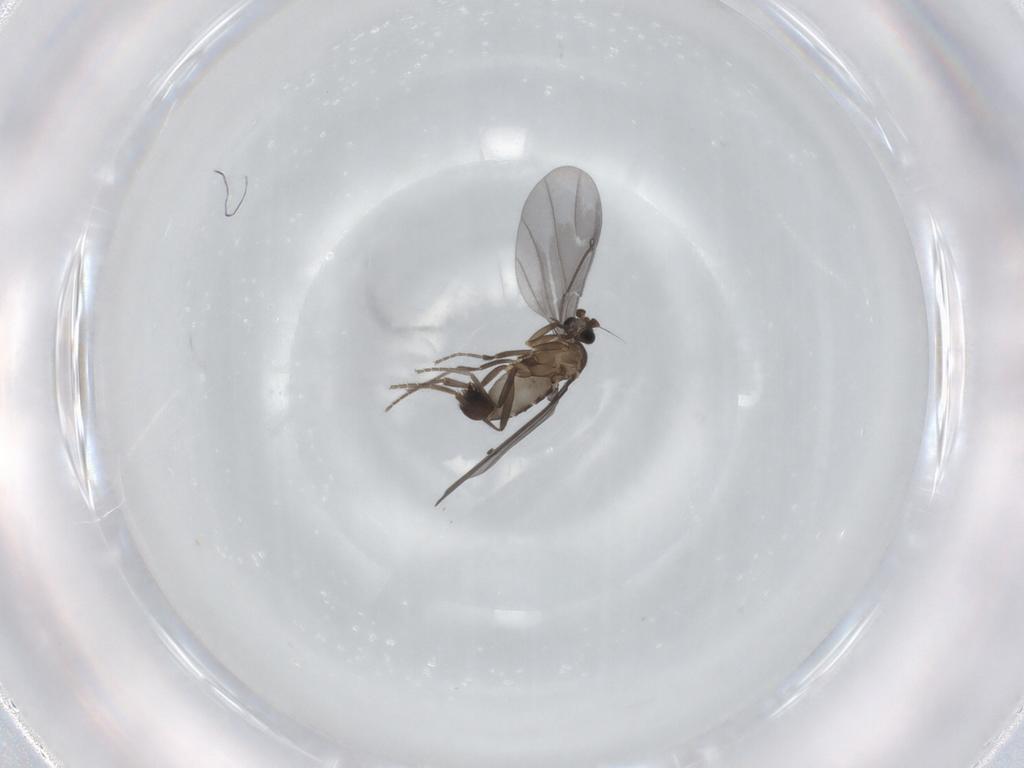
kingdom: Animalia
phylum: Arthropoda
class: Insecta
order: Diptera
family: Phoridae
